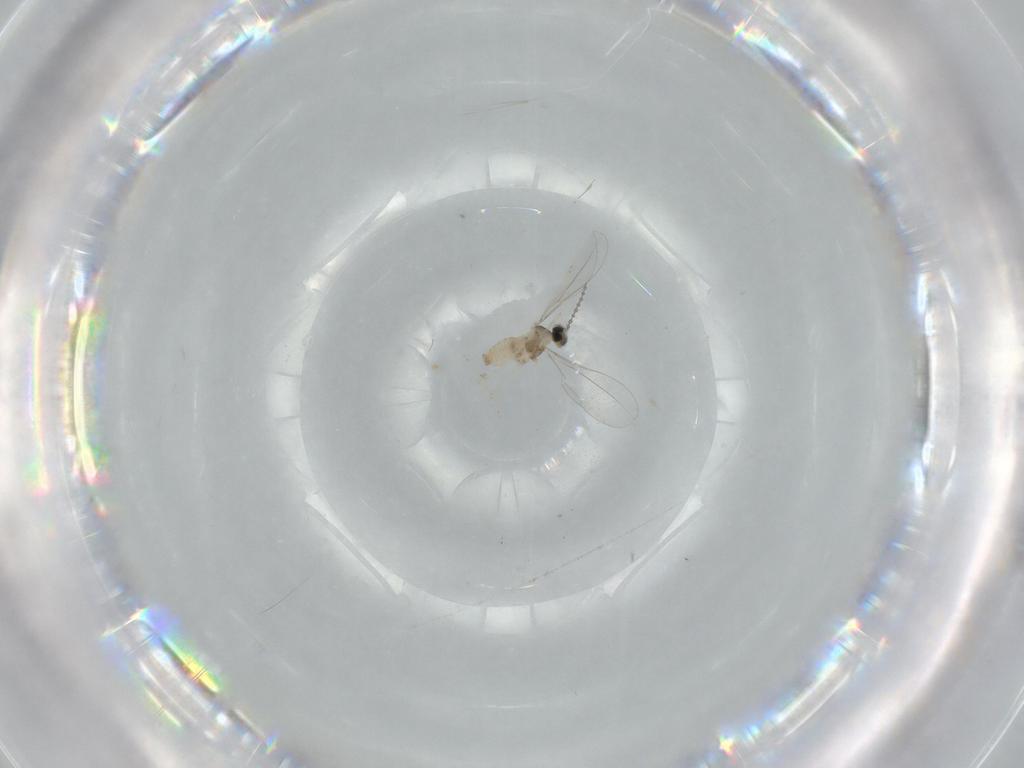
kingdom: Animalia
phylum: Arthropoda
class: Insecta
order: Diptera
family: Cecidomyiidae
